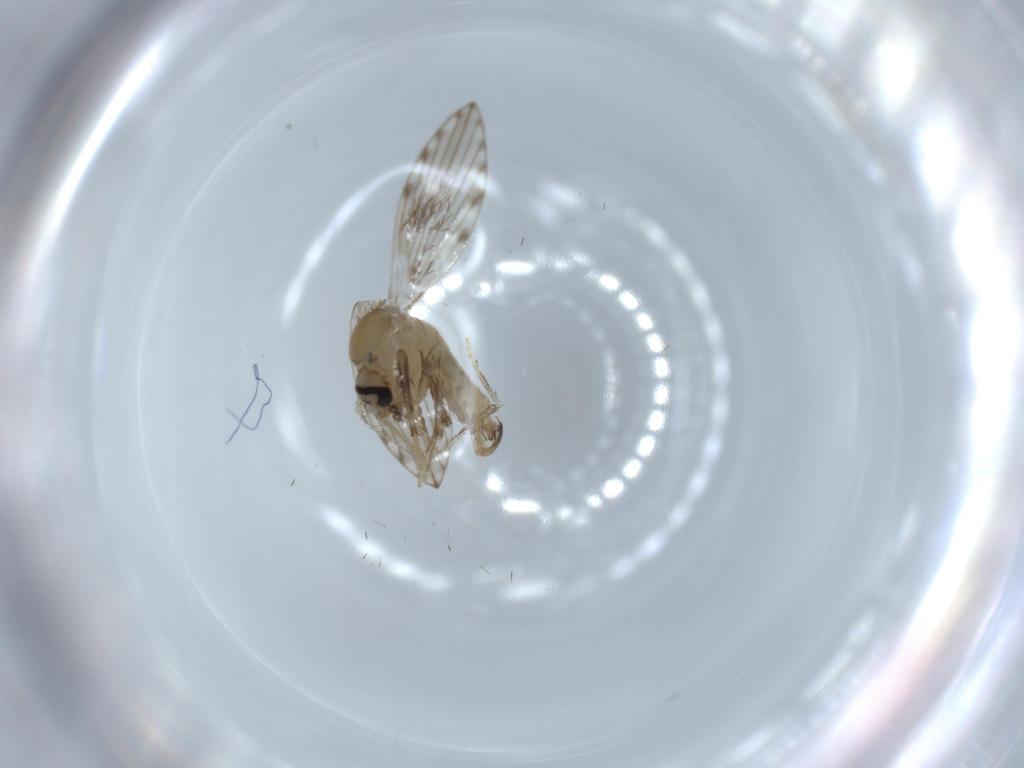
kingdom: Animalia
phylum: Arthropoda
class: Insecta
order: Diptera
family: Psychodidae
